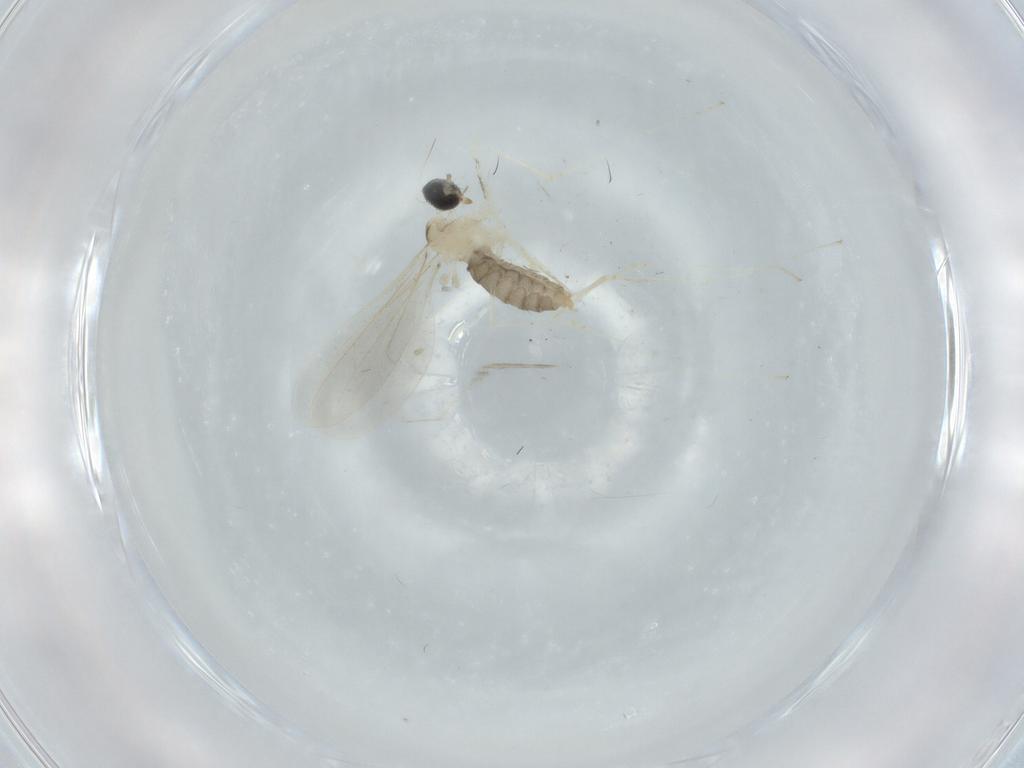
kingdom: Animalia
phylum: Arthropoda
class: Insecta
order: Diptera
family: Cecidomyiidae
